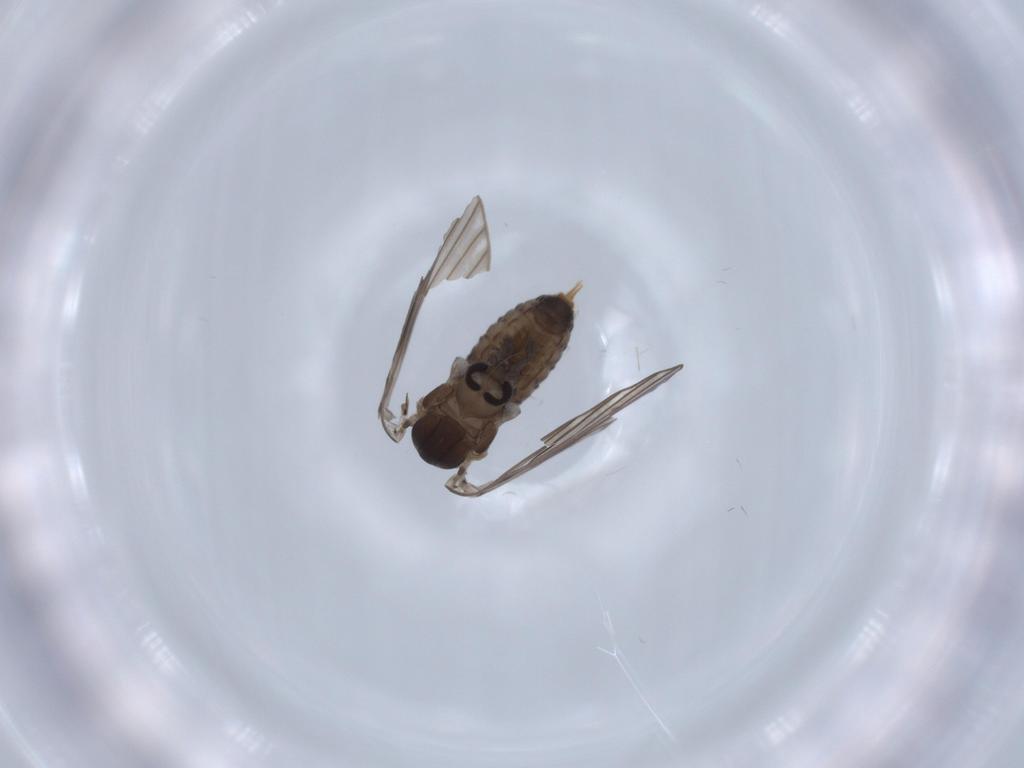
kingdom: Animalia
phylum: Arthropoda
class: Insecta
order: Diptera
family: Psychodidae
